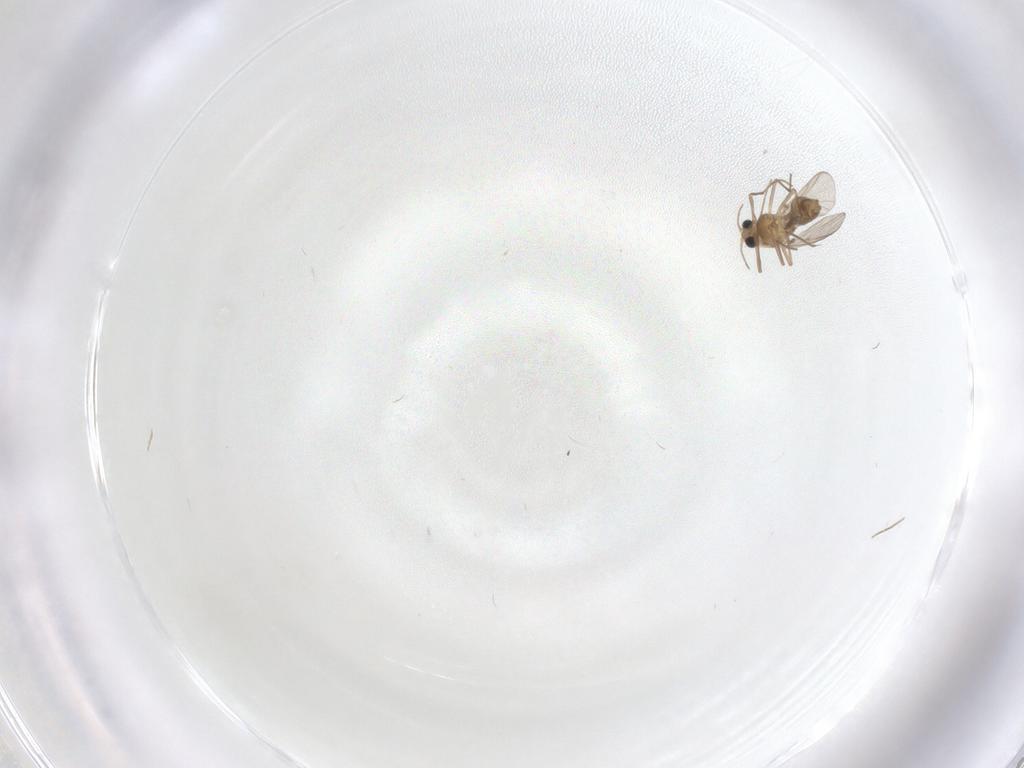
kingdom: Animalia
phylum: Arthropoda
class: Insecta
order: Diptera
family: Chironomidae
